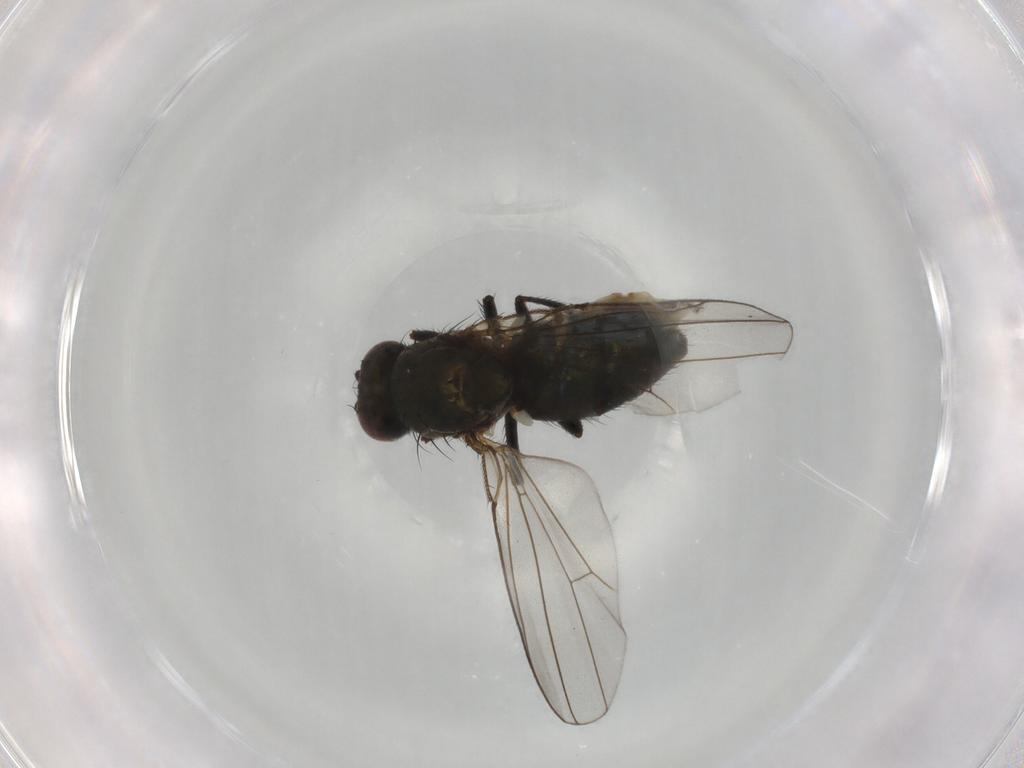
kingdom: Animalia
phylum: Arthropoda
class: Insecta
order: Diptera
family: Ephydridae
